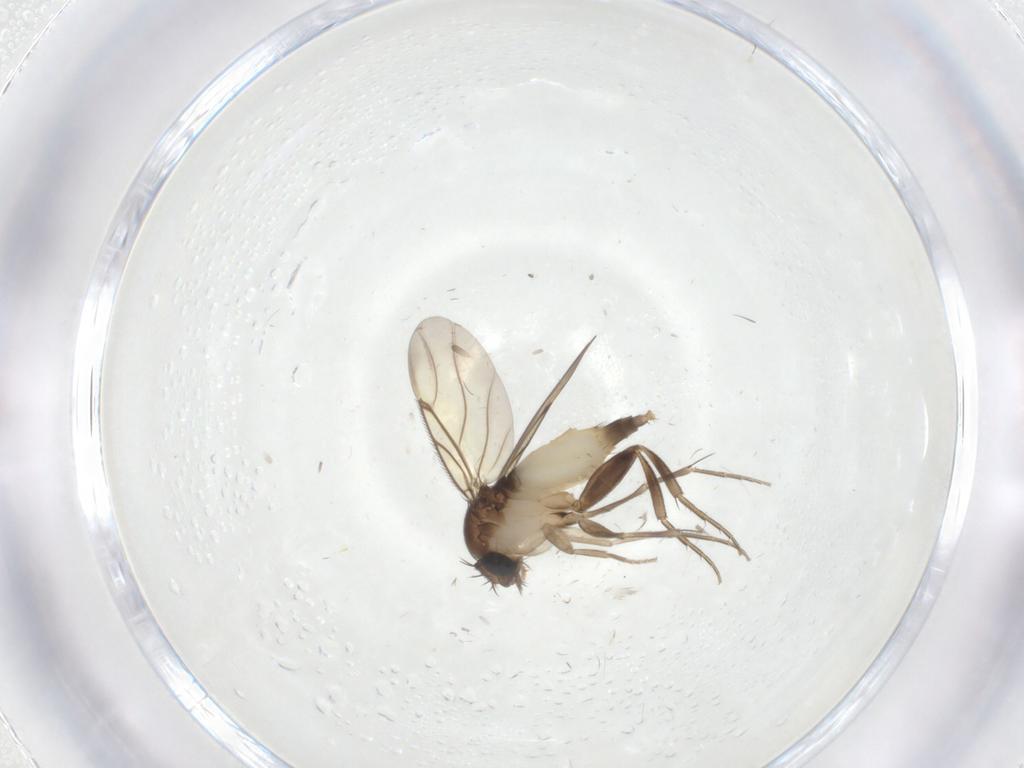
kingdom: Animalia
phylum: Arthropoda
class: Insecta
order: Diptera
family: Phoridae
